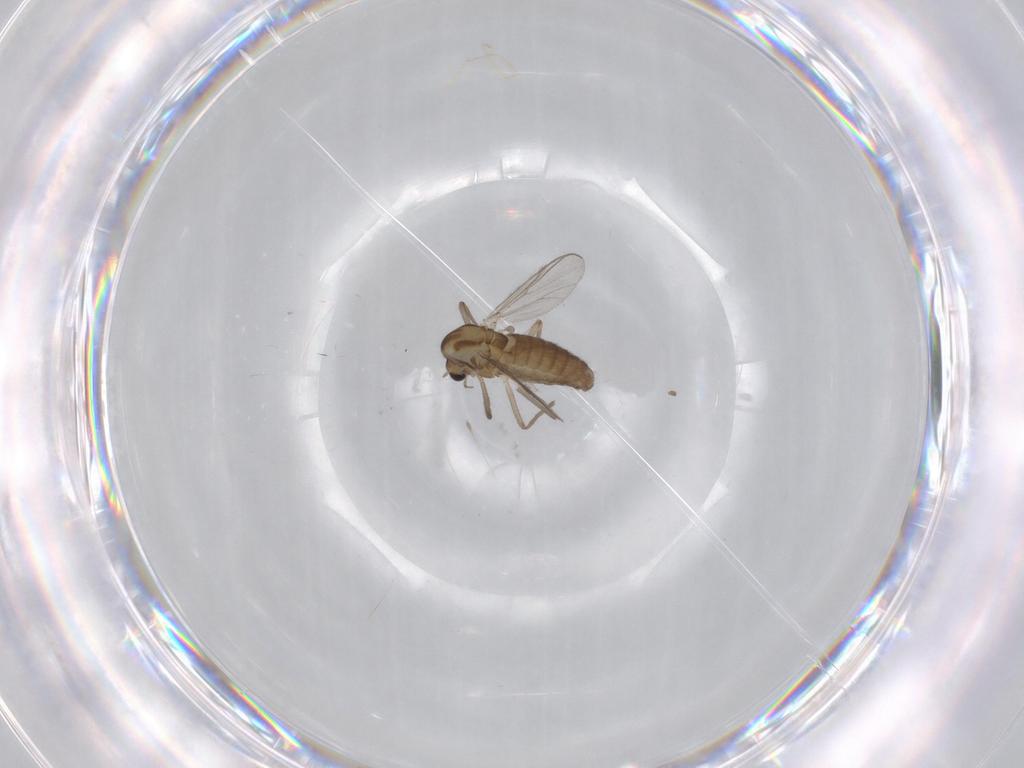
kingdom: Animalia
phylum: Arthropoda
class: Insecta
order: Diptera
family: Chironomidae
